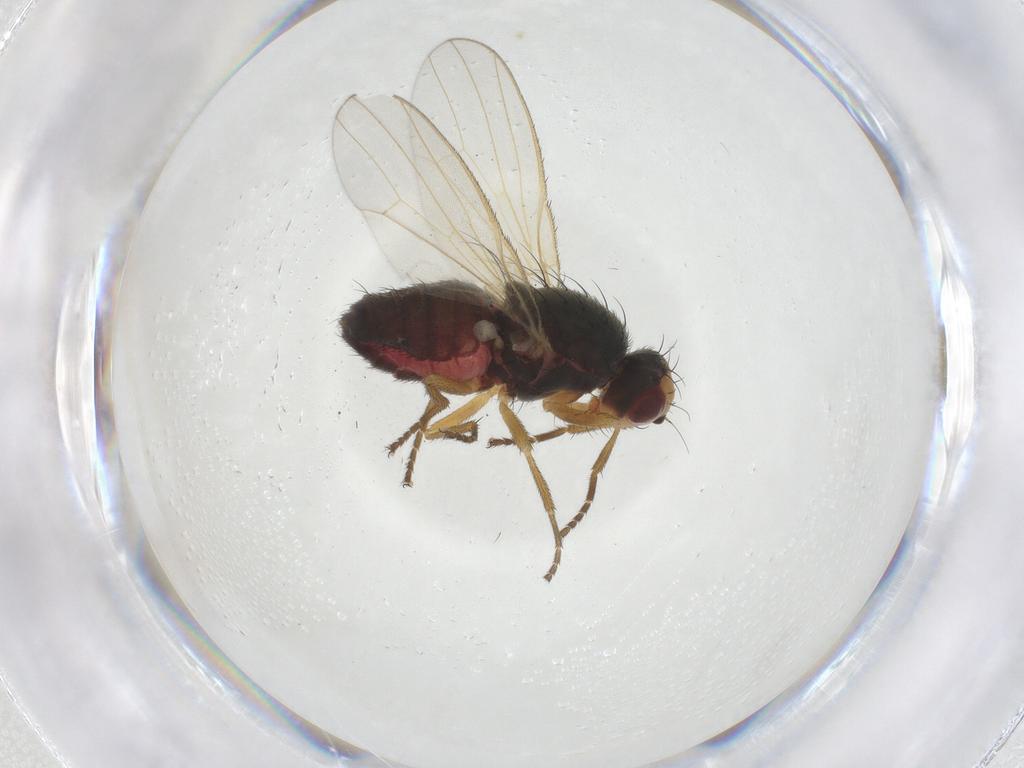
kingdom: Animalia
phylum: Arthropoda
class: Insecta
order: Diptera
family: Heleomyzidae
